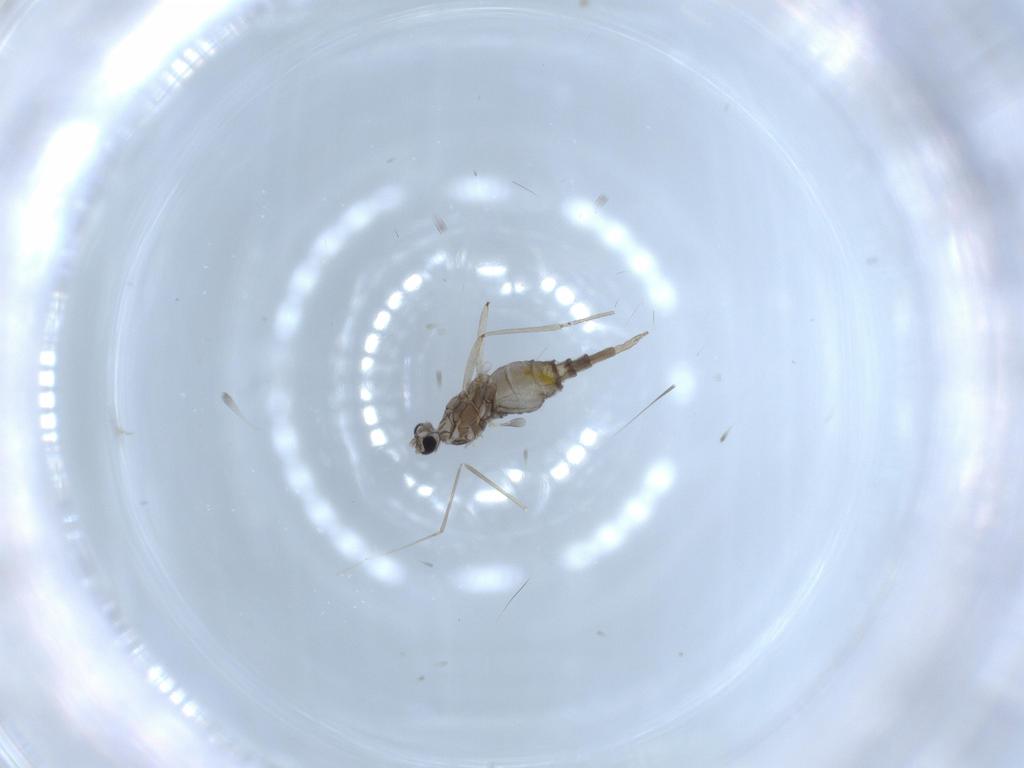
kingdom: Animalia
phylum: Arthropoda
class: Insecta
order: Diptera
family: Cecidomyiidae
